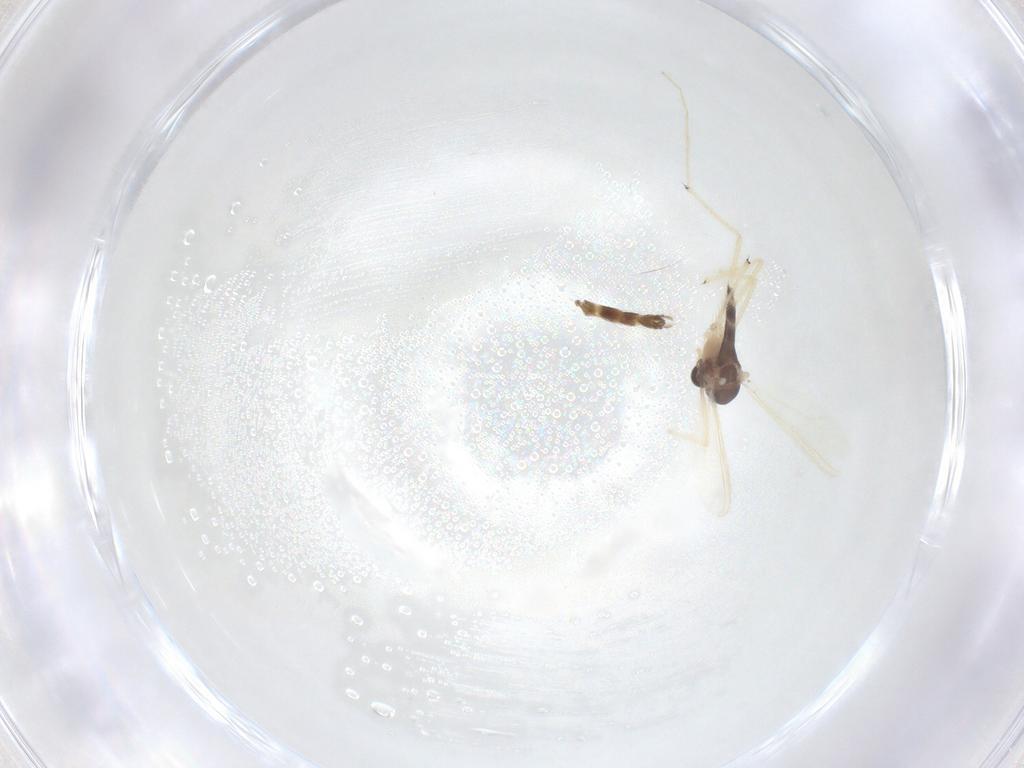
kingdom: Animalia
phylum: Arthropoda
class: Insecta
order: Diptera
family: Chironomidae
